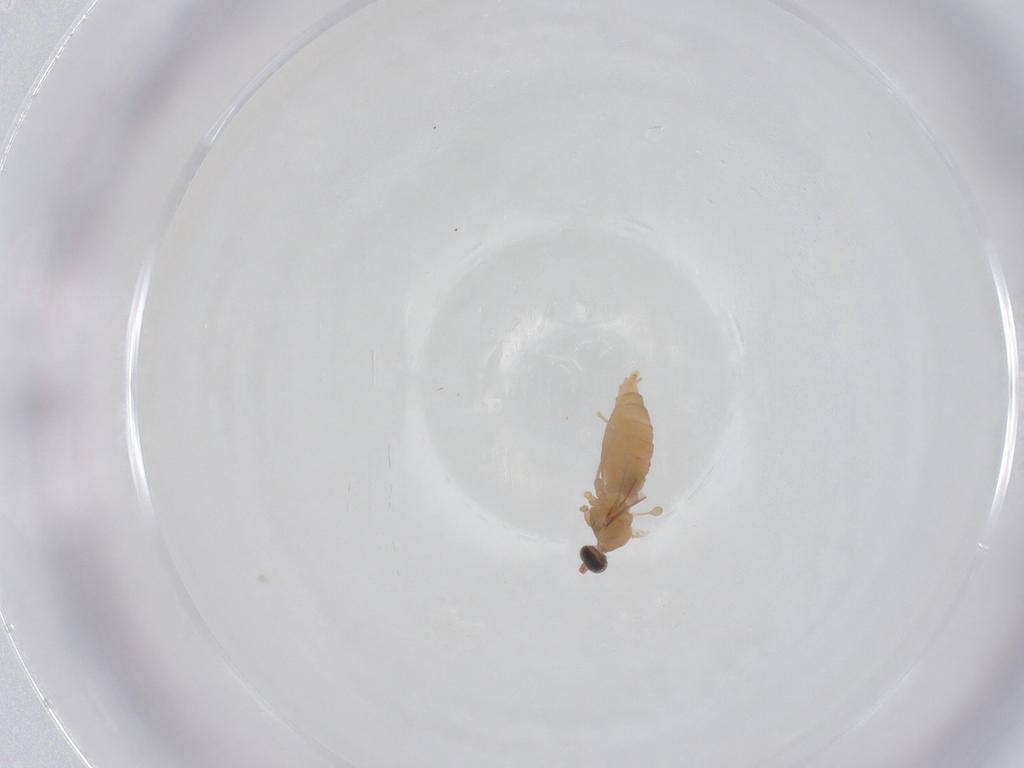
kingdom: Animalia
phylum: Arthropoda
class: Insecta
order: Diptera
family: Cecidomyiidae
